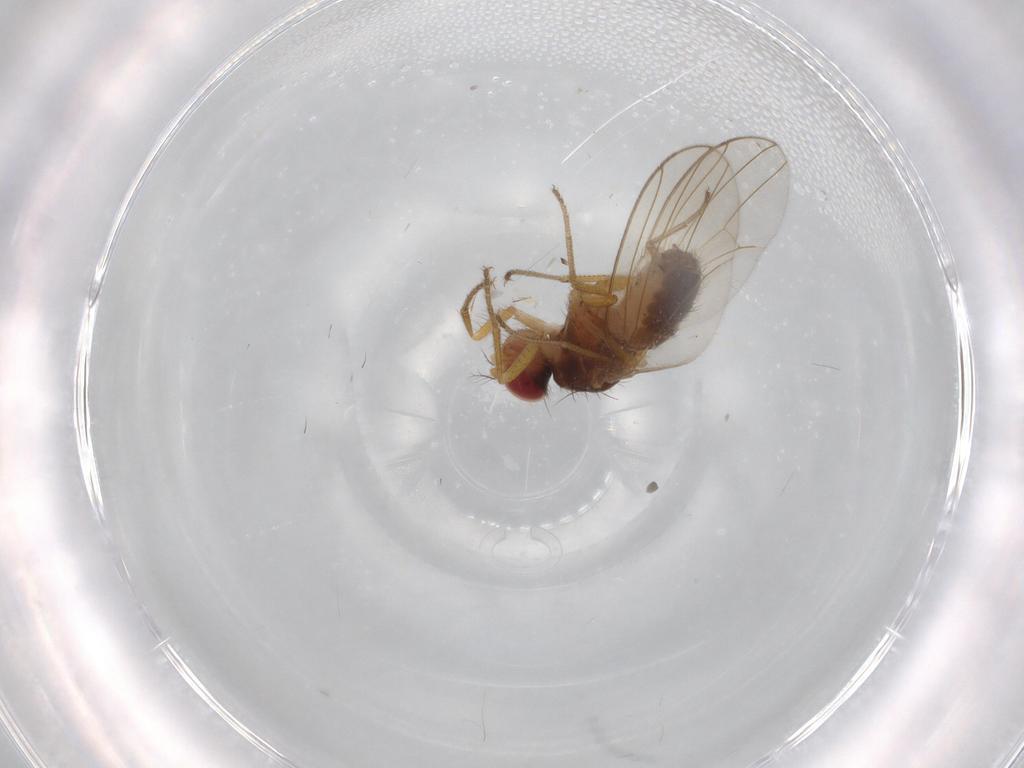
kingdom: Animalia
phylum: Arthropoda
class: Insecta
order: Diptera
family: Drosophilidae
